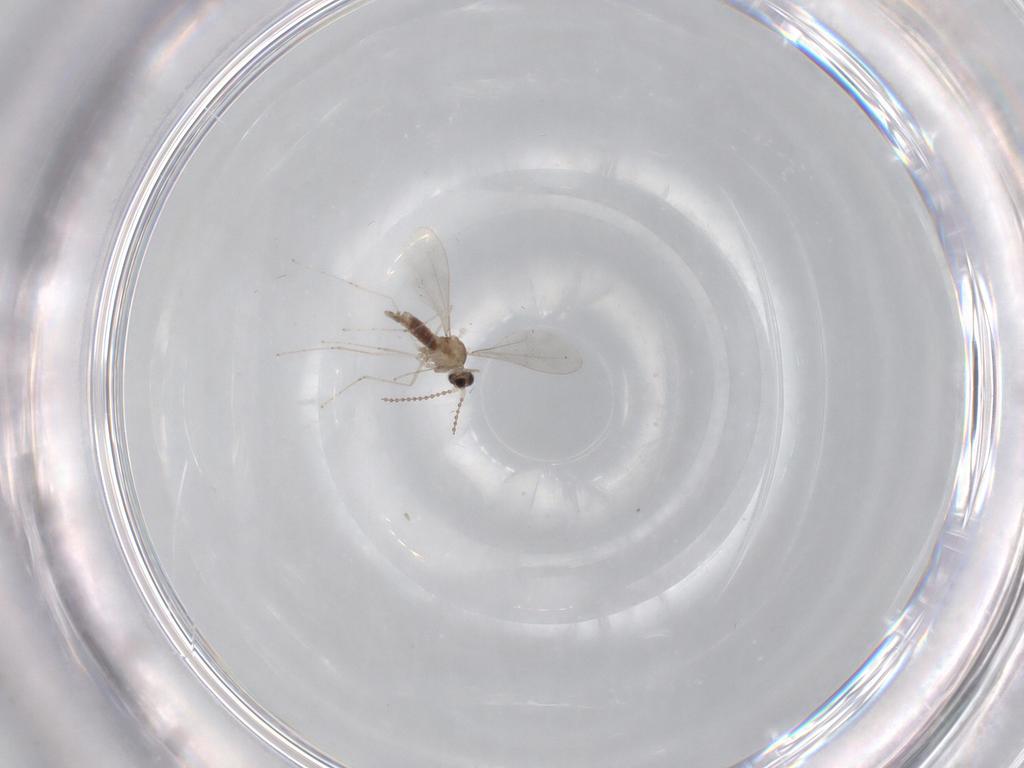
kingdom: Animalia
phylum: Arthropoda
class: Insecta
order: Diptera
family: Cecidomyiidae
